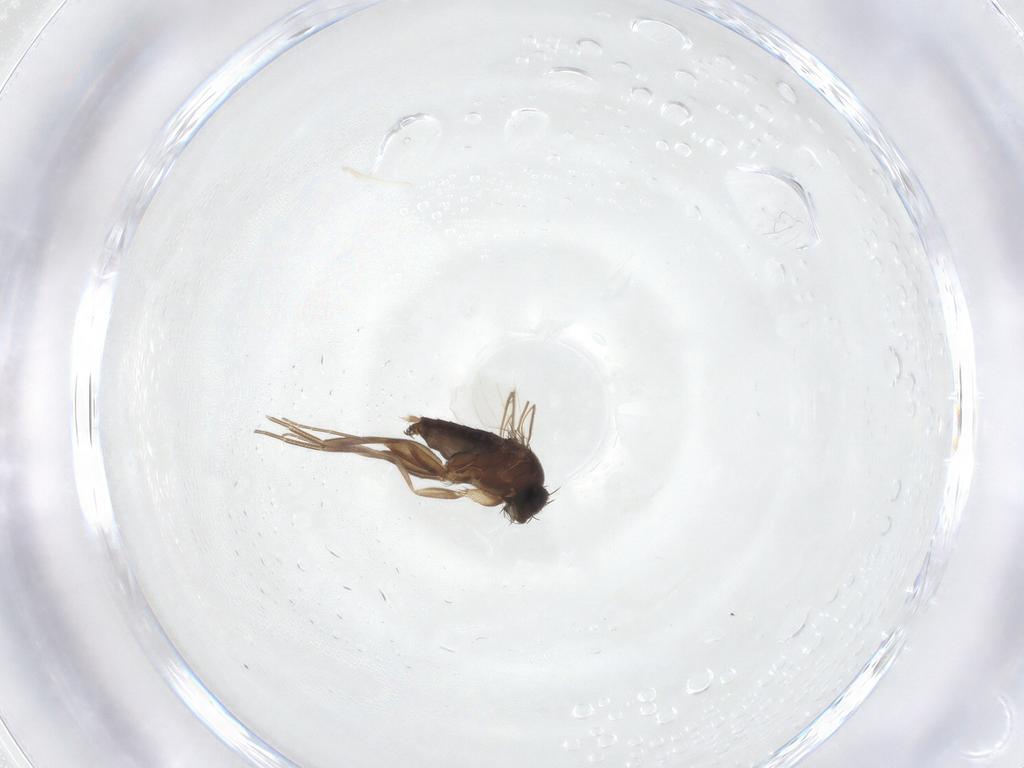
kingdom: Animalia
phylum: Arthropoda
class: Insecta
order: Diptera
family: Phoridae
